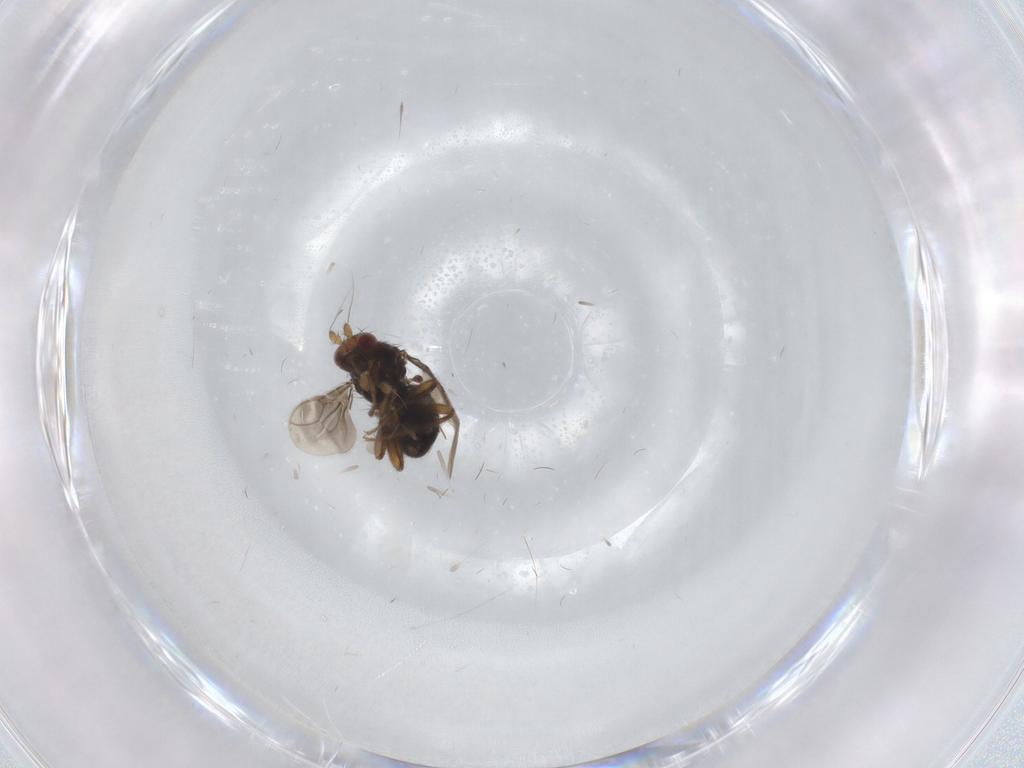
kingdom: Animalia
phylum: Arthropoda
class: Insecta
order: Diptera
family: Sphaeroceridae
